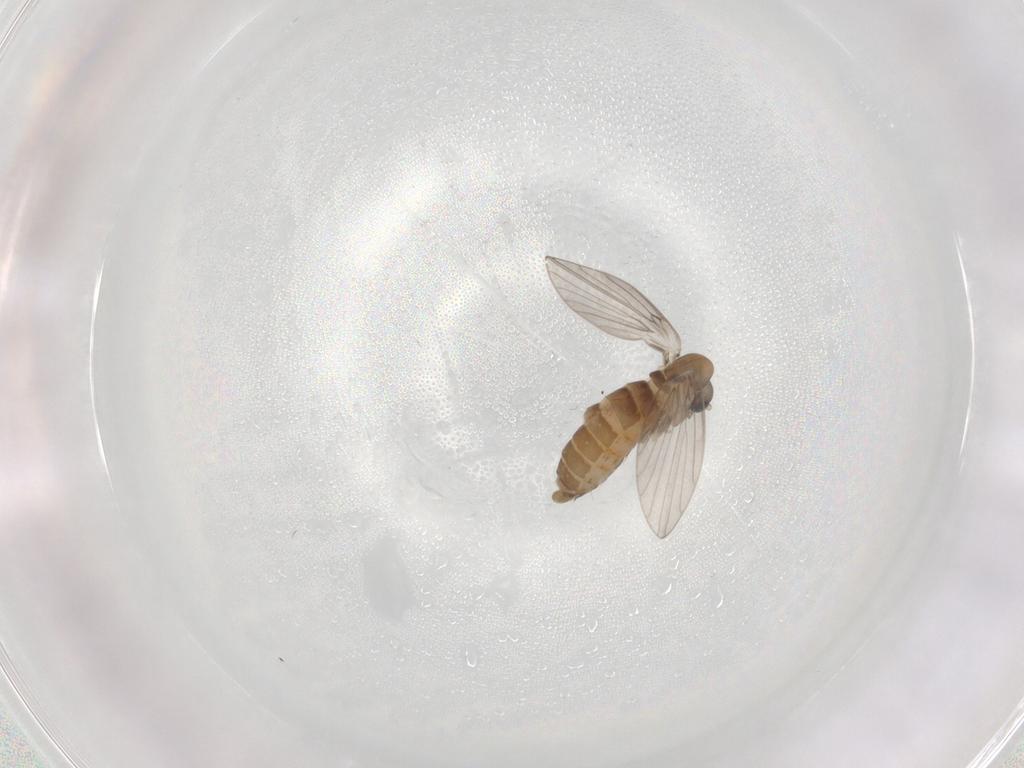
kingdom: Animalia
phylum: Arthropoda
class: Insecta
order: Diptera
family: Psychodidae
